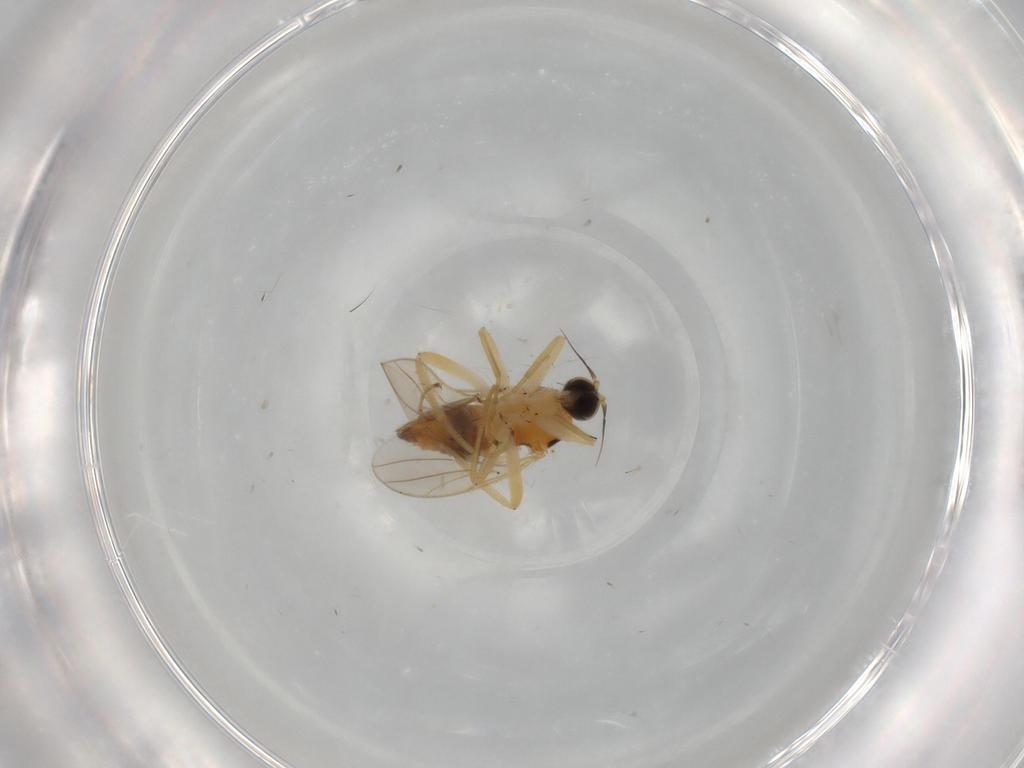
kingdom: Animalia
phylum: Arthropoda
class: Insecta
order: Diptera
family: Hybotidae
